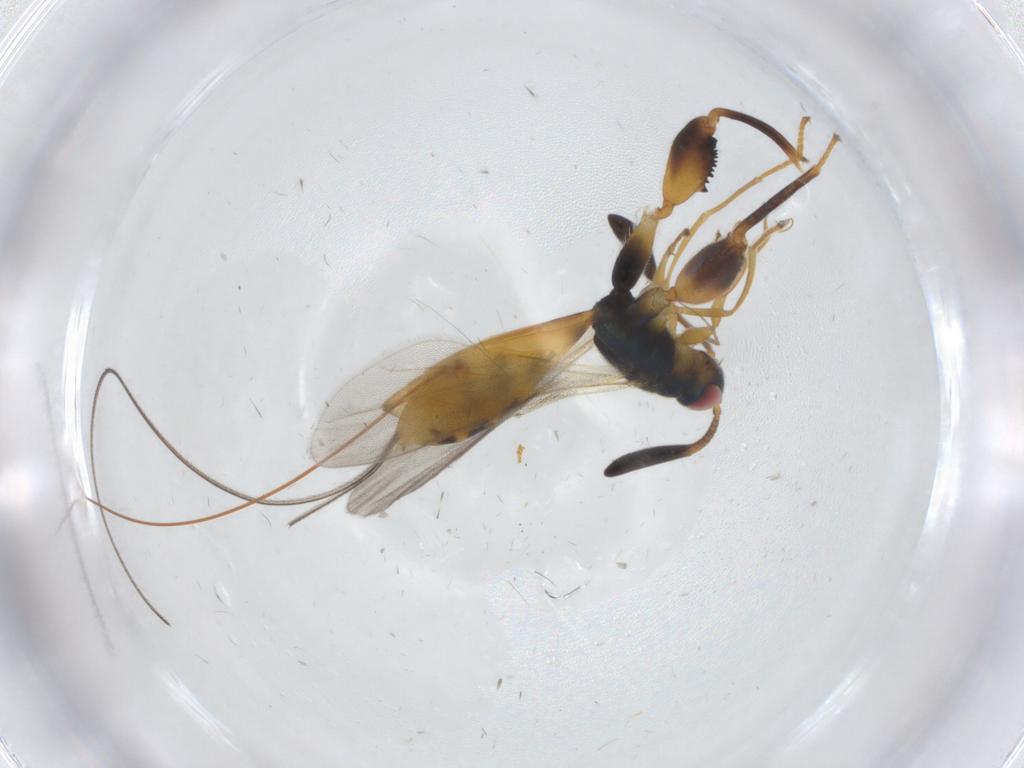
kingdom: Animalia
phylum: Arthropoda
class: Insecta
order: Hymenoptera
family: Torymidae
